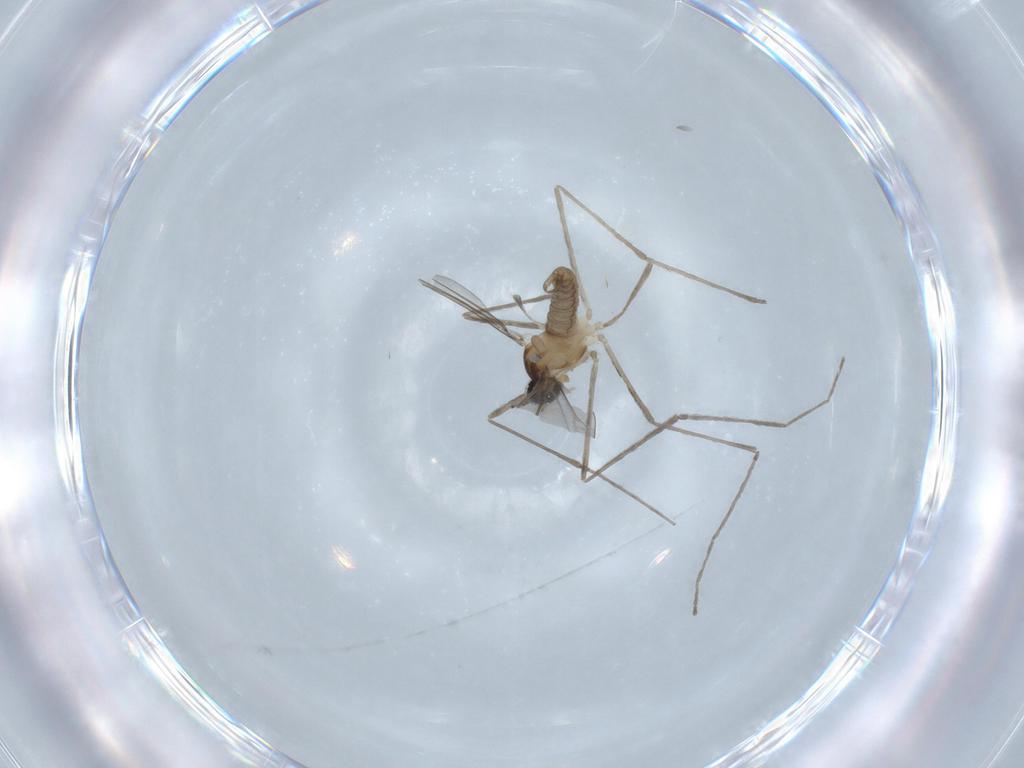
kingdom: Animalia
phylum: Arthropoda
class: Insecta
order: Diptera
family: Cecidomyiidae
